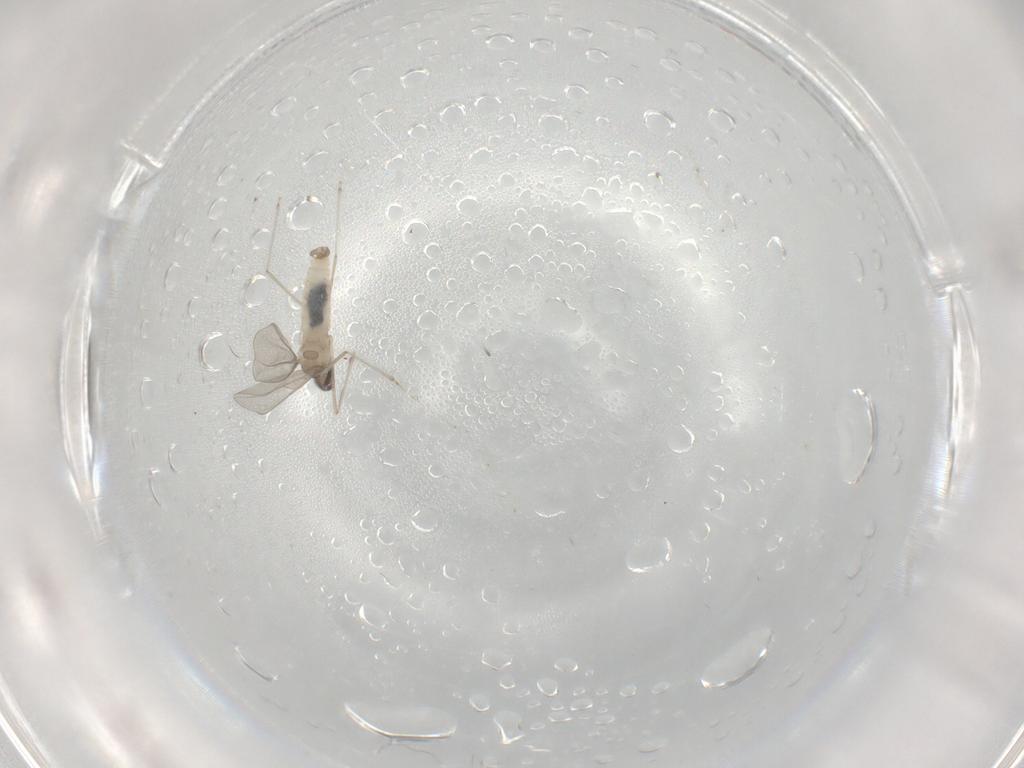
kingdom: Animalia
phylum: Arthropoda
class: Insecta
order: Diptera
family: Cecidomyiidae
